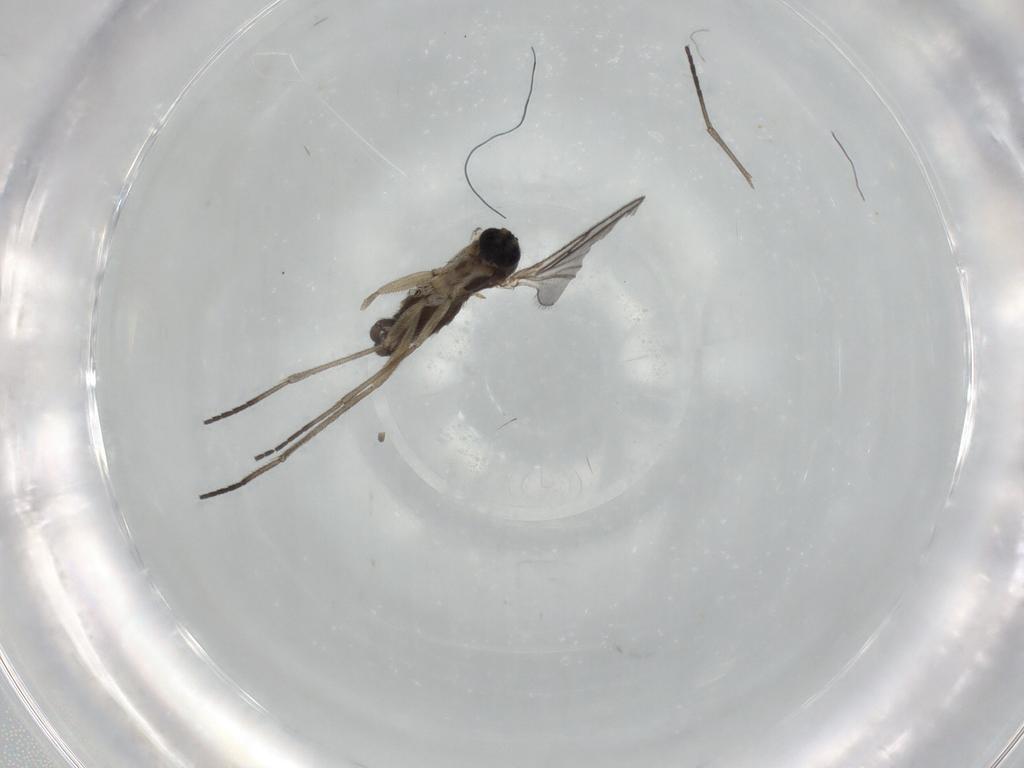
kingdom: Animalia
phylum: Arthropoda
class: Insecta
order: Diptera
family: Sciaridae
